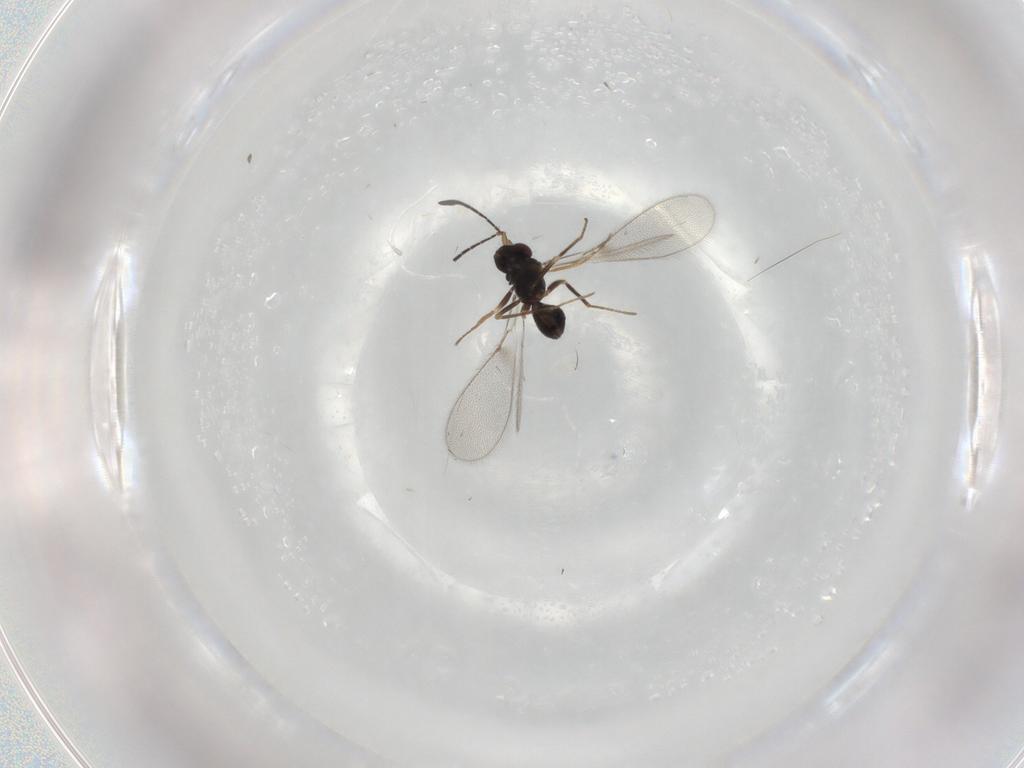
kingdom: Animalia
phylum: Arthropoda
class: Insecta
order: Hymenoptera
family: Mymaridae
